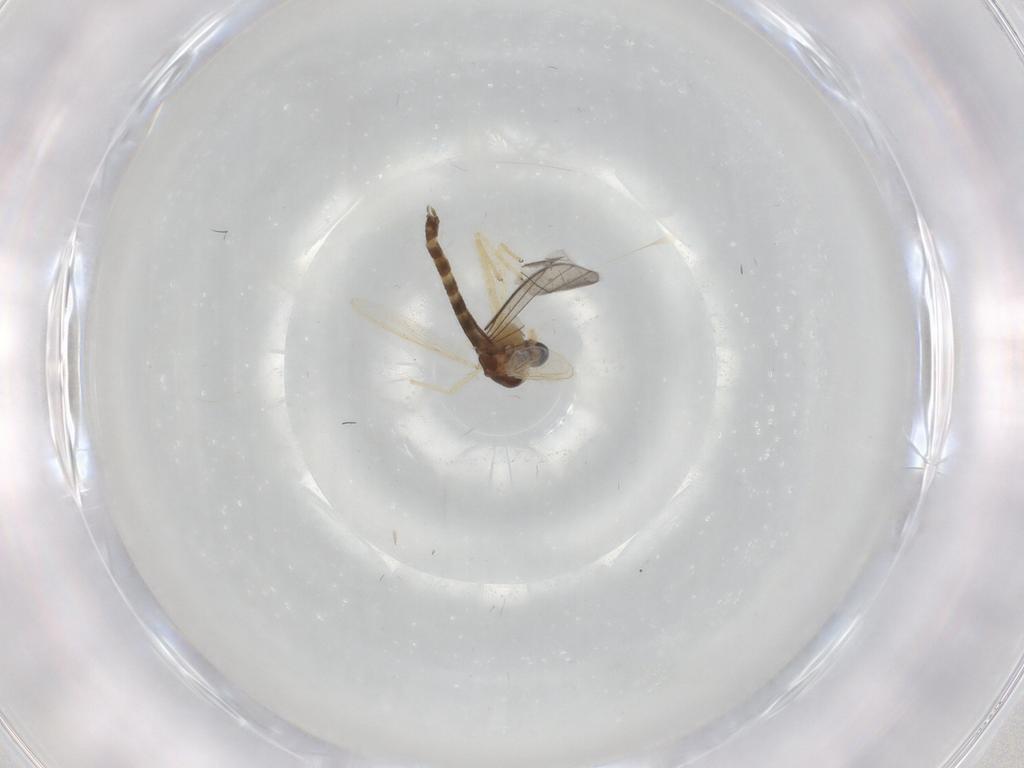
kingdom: Animalia
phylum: Arthropoda
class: Insecta
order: Diptera
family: Chironomidae
